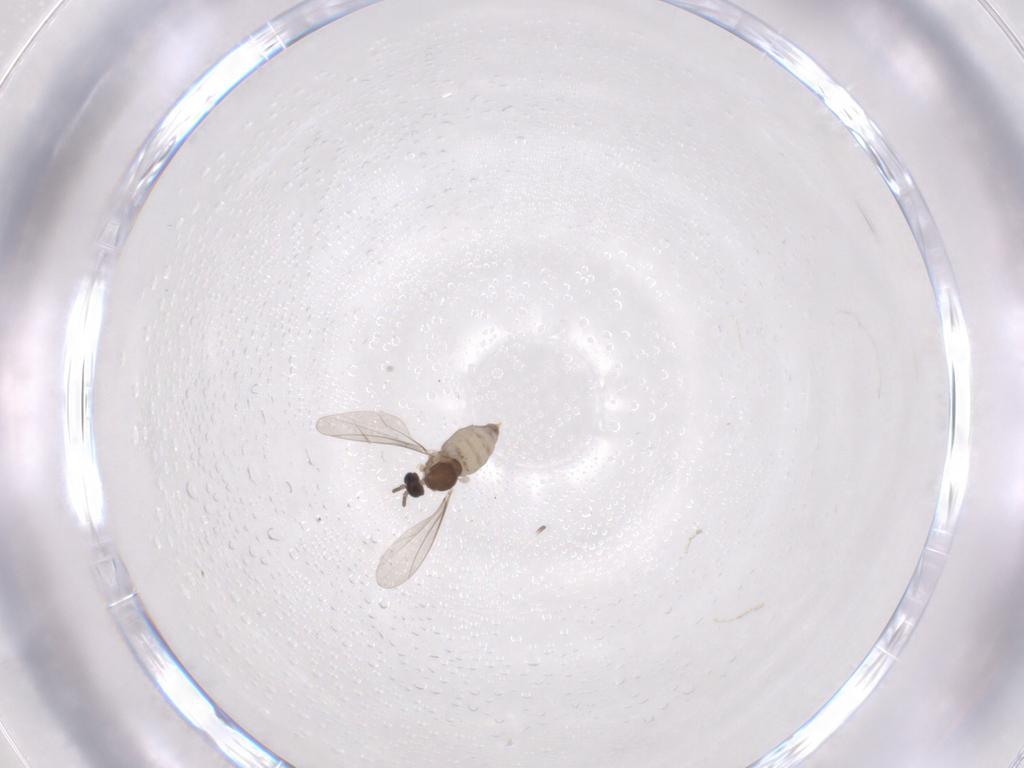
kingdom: Animalia
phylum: Arthropoda
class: Insecta
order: Diptera
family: Cecidomyiidae
